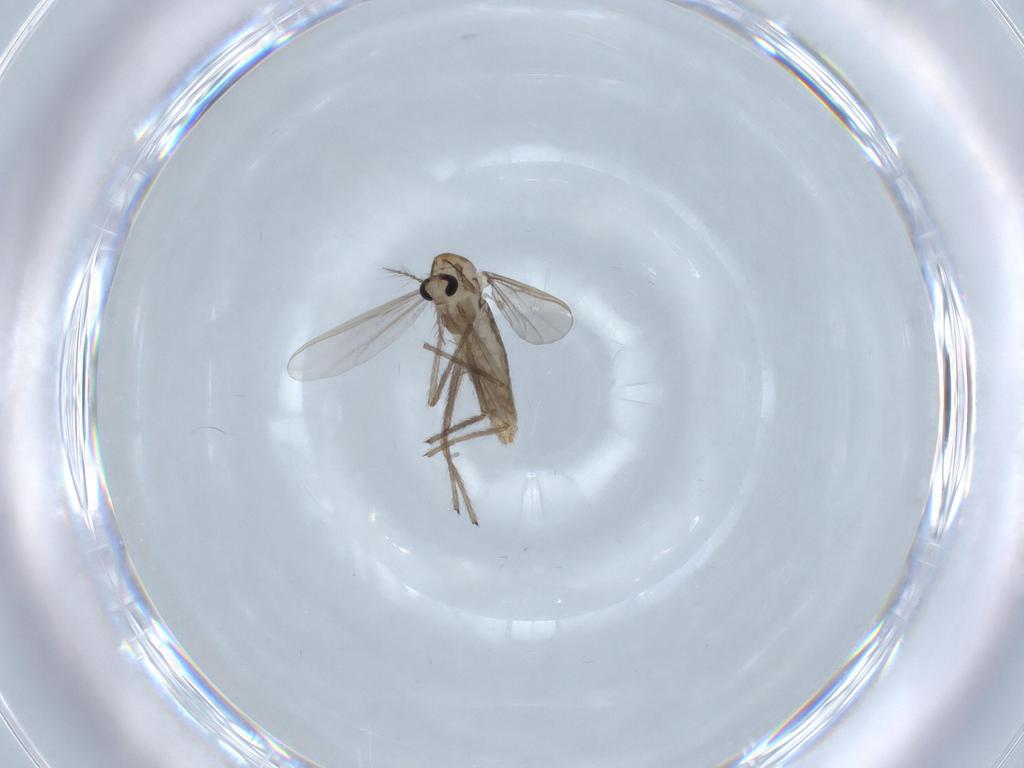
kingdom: Animalia
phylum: Arthropoda
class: Insecta
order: Diptera
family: Chironomidae
